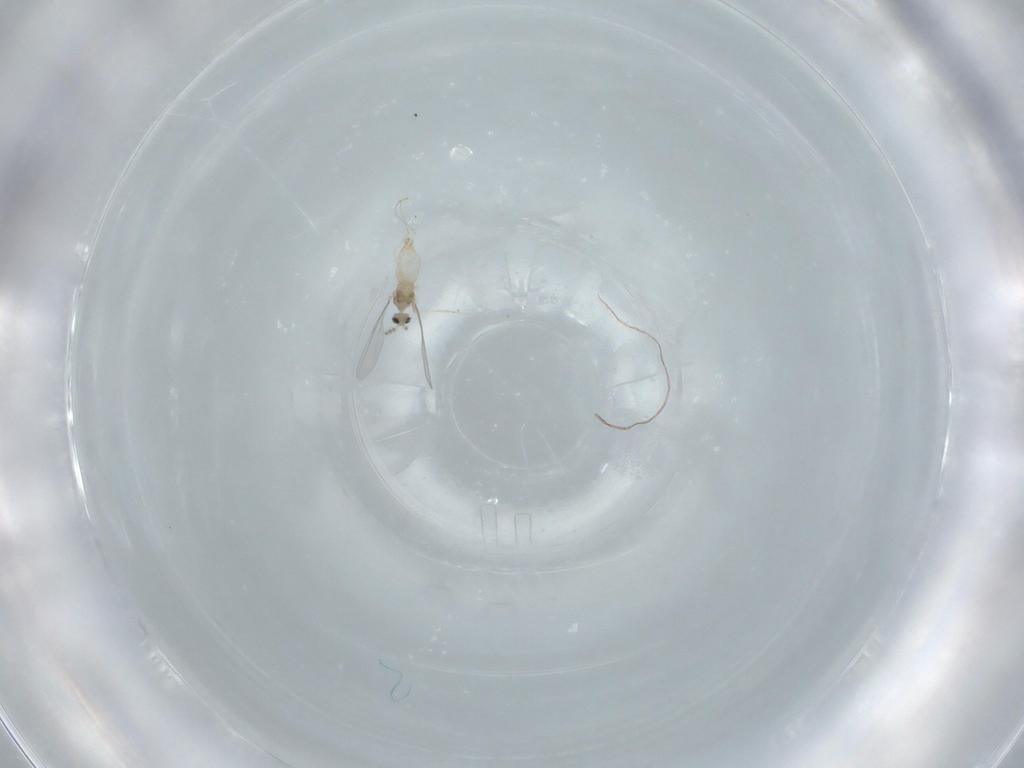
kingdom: Animalia
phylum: Arthropoda
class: Insecta
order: Diptera
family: Cecidomyiidae
